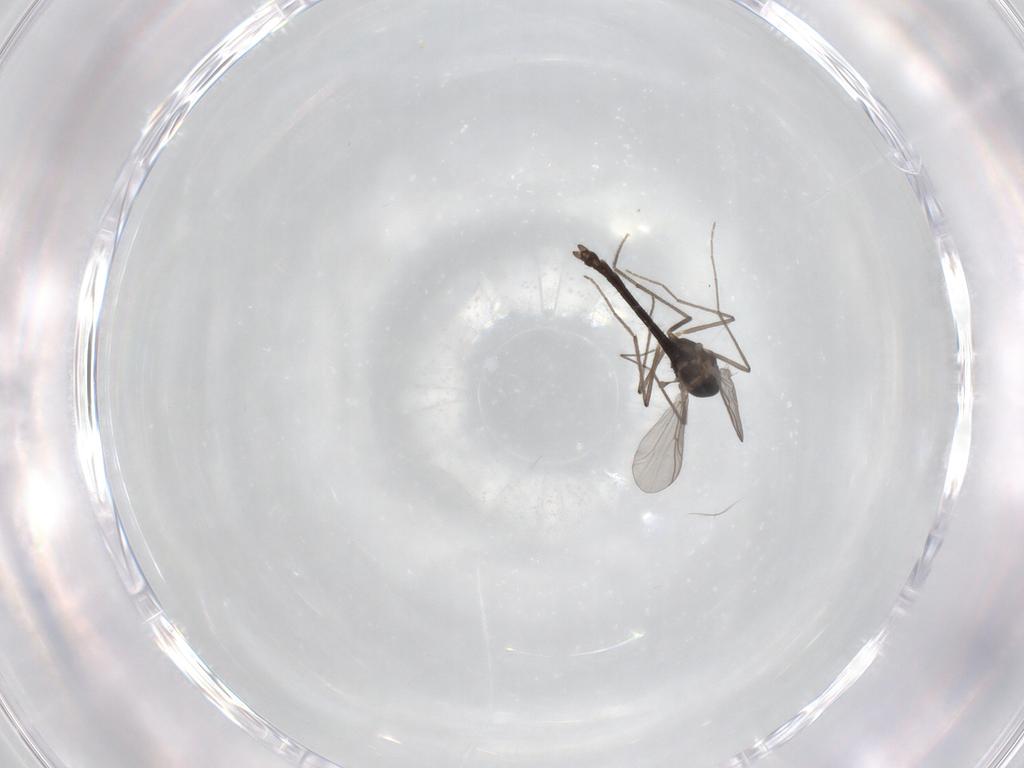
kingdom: Animalia
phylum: Arthropoda
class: Insecta
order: Diptera
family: Chironomidae
